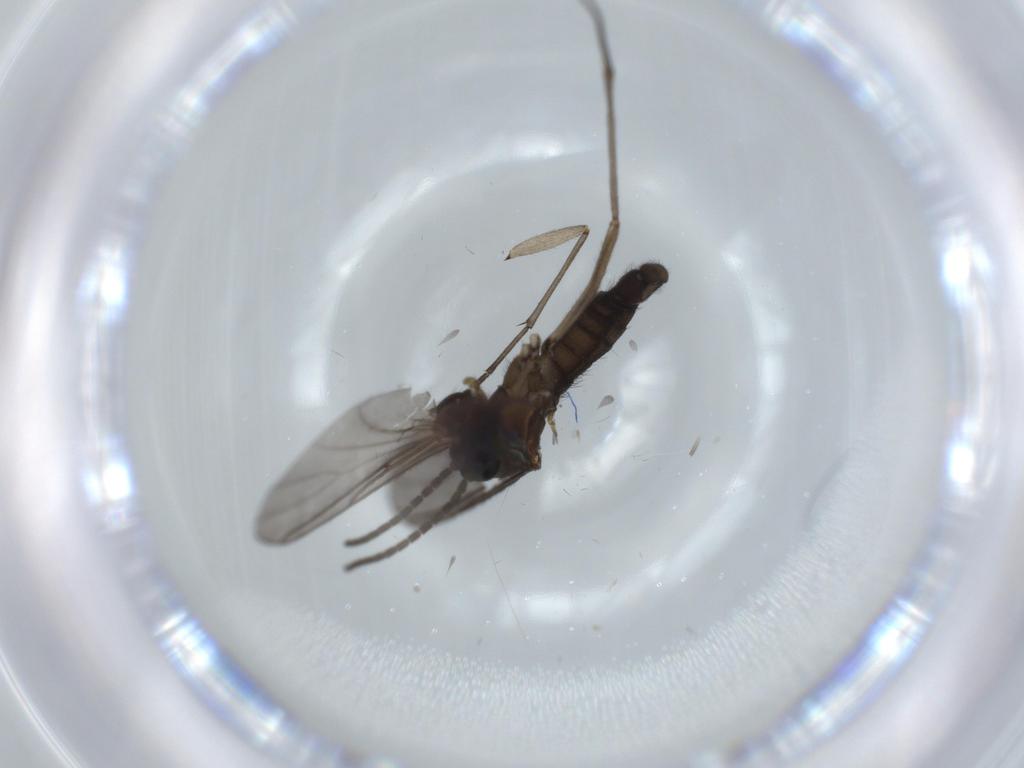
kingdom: Animalia
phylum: Arthropoda
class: Insecta
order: Diptera
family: Sciaridae
